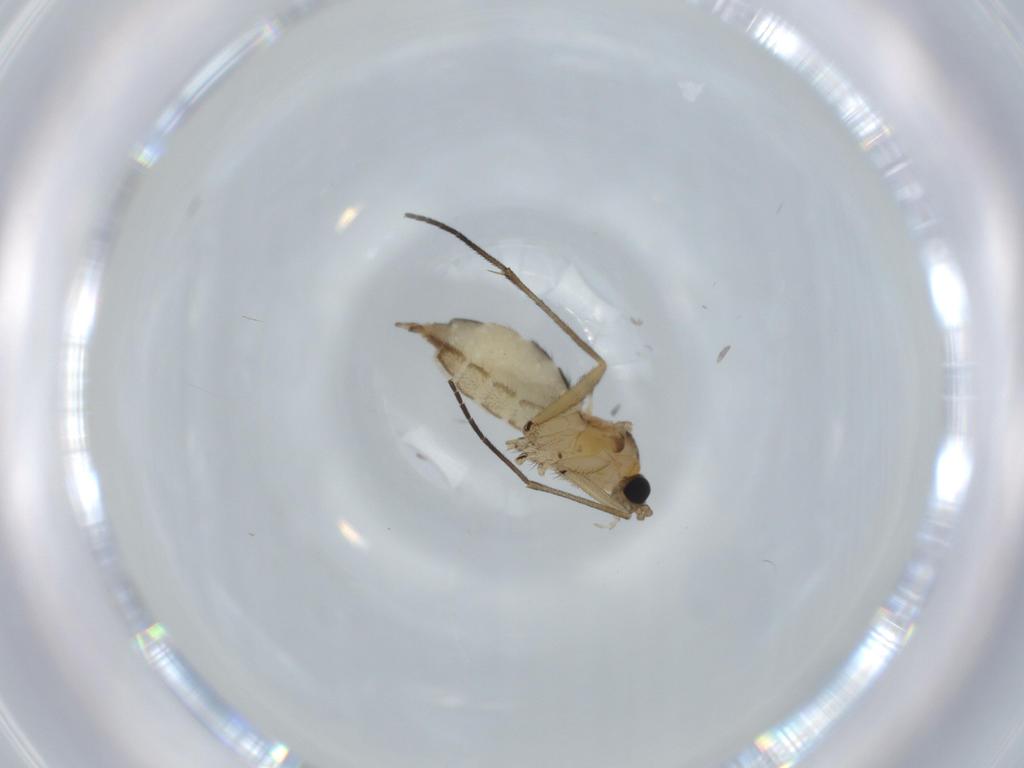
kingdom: Animalia
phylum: Arthropoda
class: Insecta
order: Diptera
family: Sciaridae
